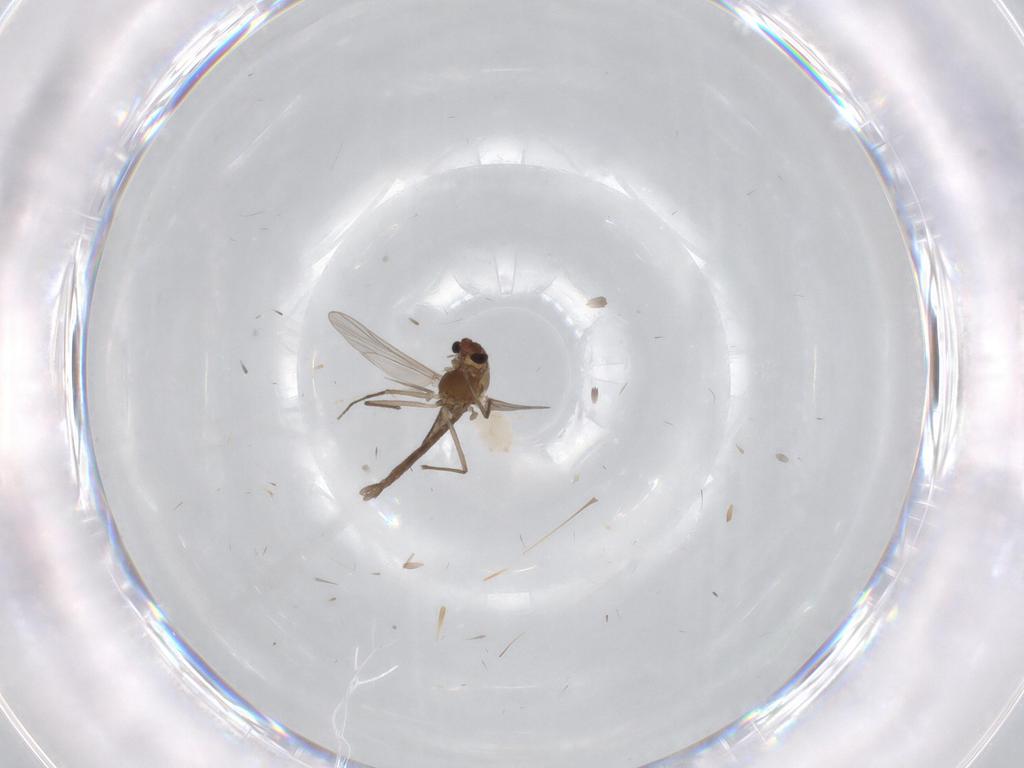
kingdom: Animalia
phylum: Arthropoda
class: Insecta
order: Diptera
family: Chironomidae
